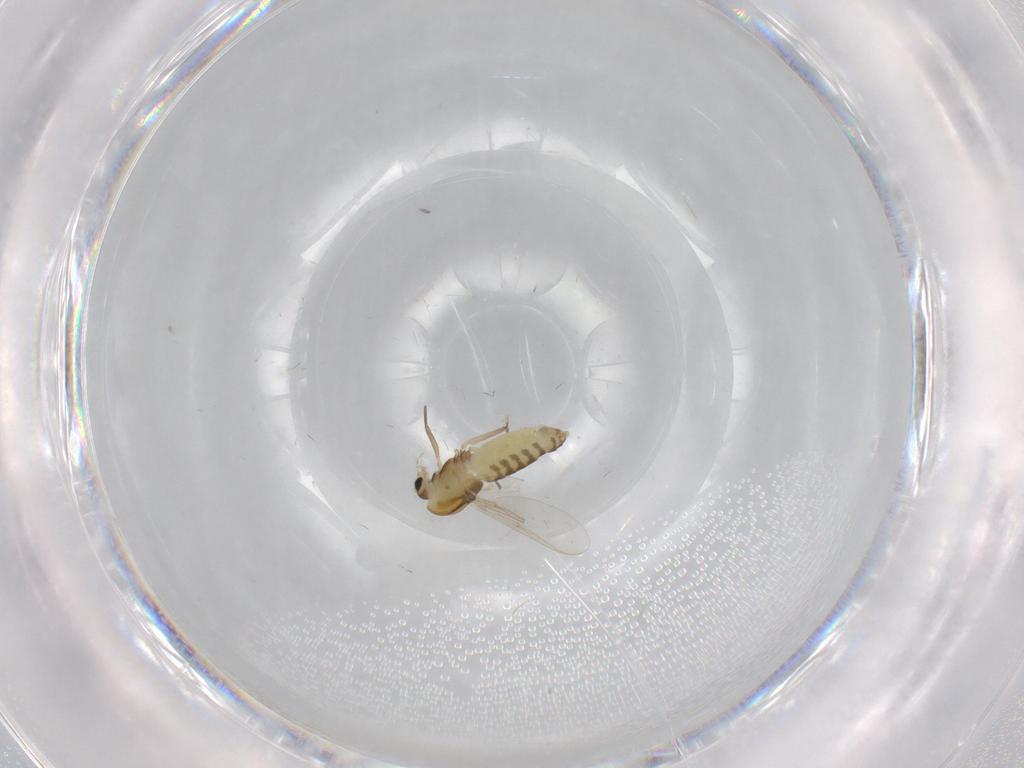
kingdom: Animalia
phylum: Arthropoda
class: Insecta
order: Diptera
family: Chironomidae
